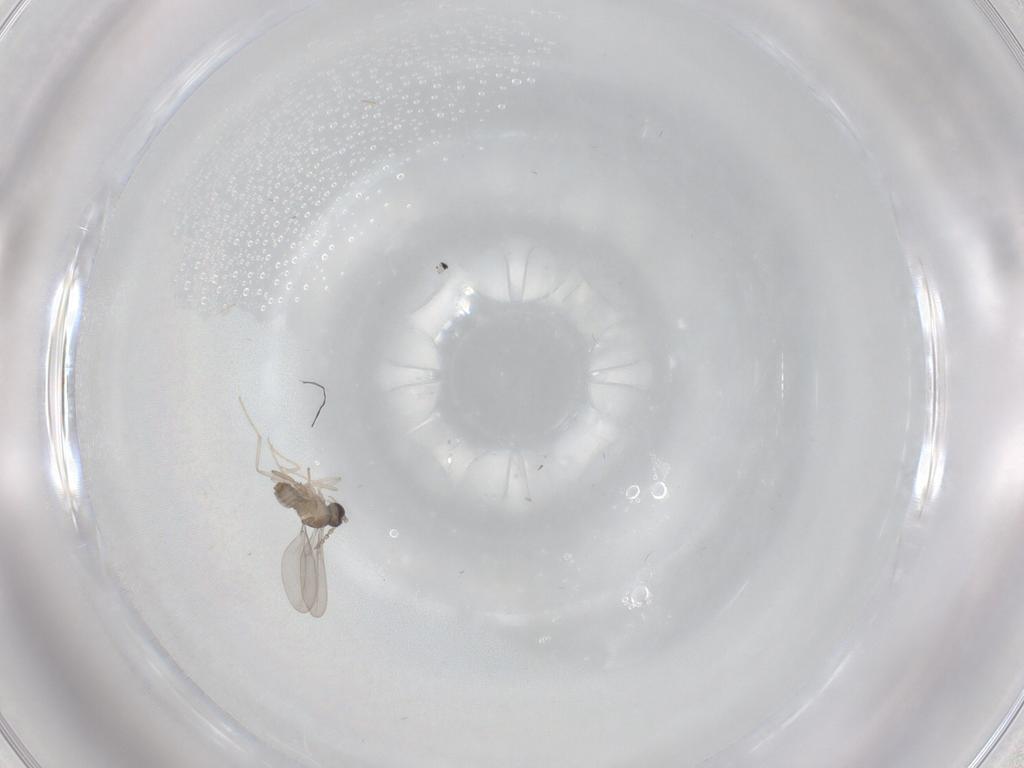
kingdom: Animalia
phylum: Arthropoda
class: Insecta
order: Diptera
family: Cecidomyiidae
